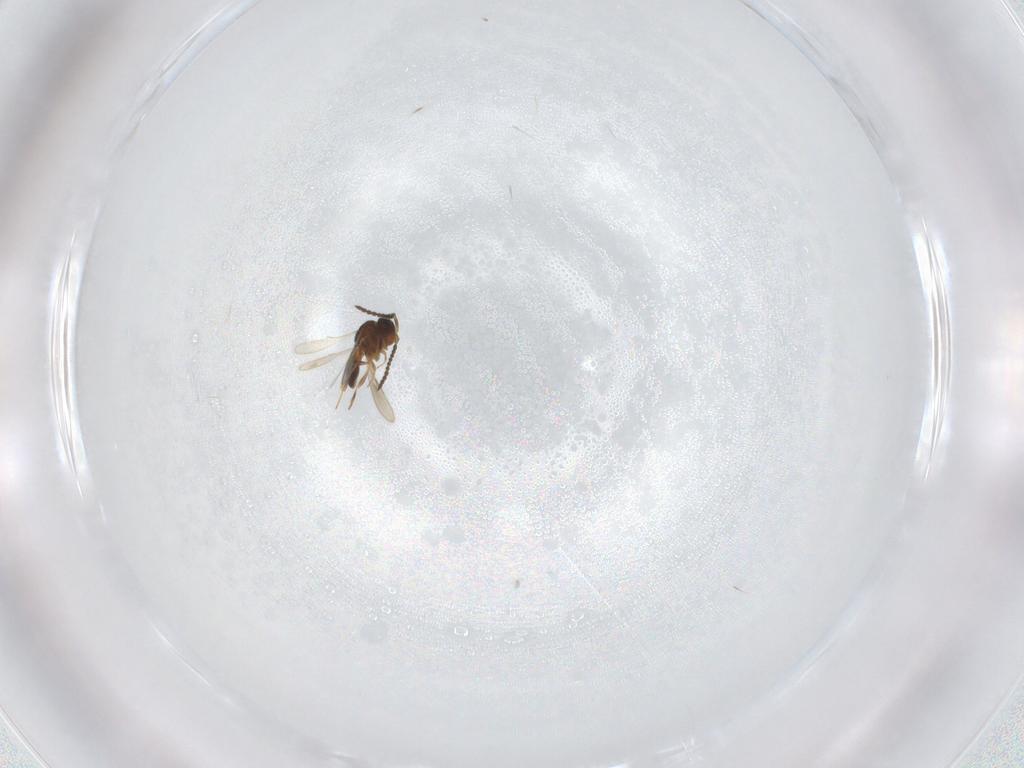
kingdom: Animalia
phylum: Arthropoda
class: Insecta
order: Hymenoptera
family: Scelionidae
